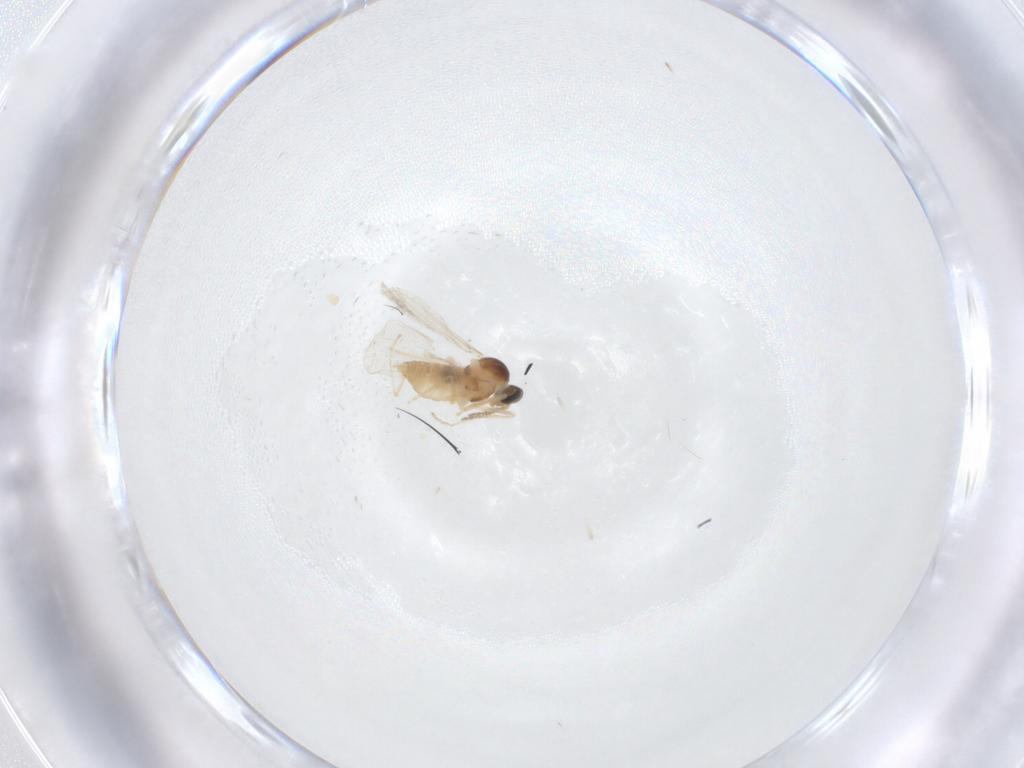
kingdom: Animalia
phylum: Arthropoda
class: Insecta
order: Diptera
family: Cecidomyiidae
